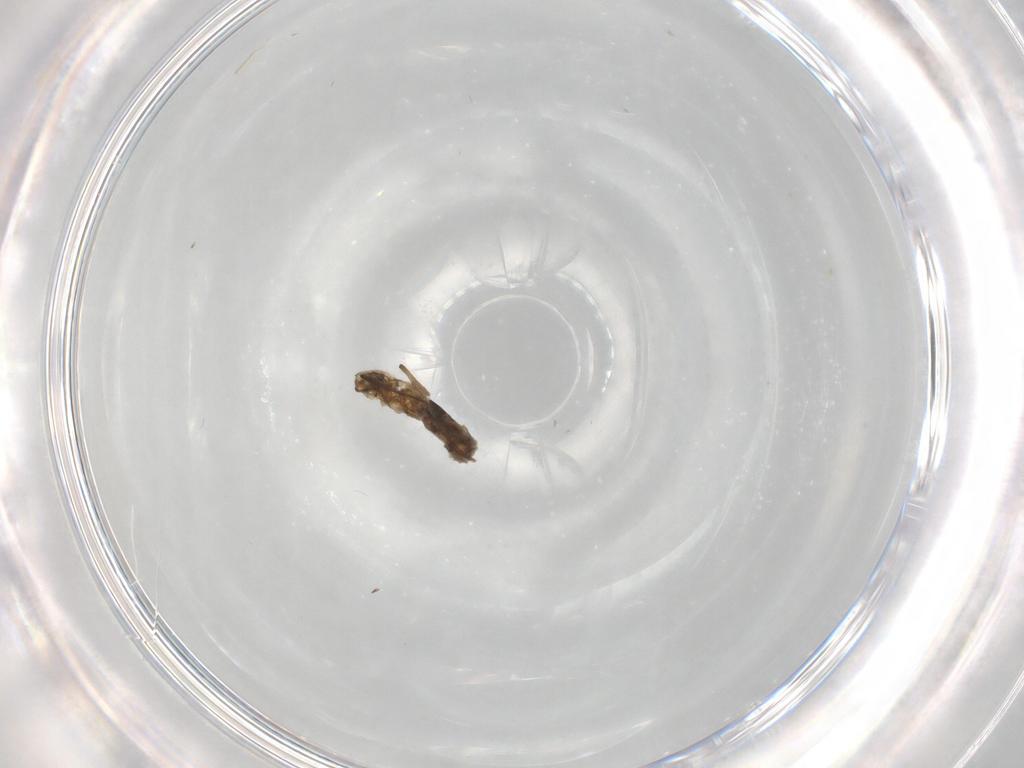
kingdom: Animalia
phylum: Arthropoda
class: Insecta
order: Diptera
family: Chironomidae
